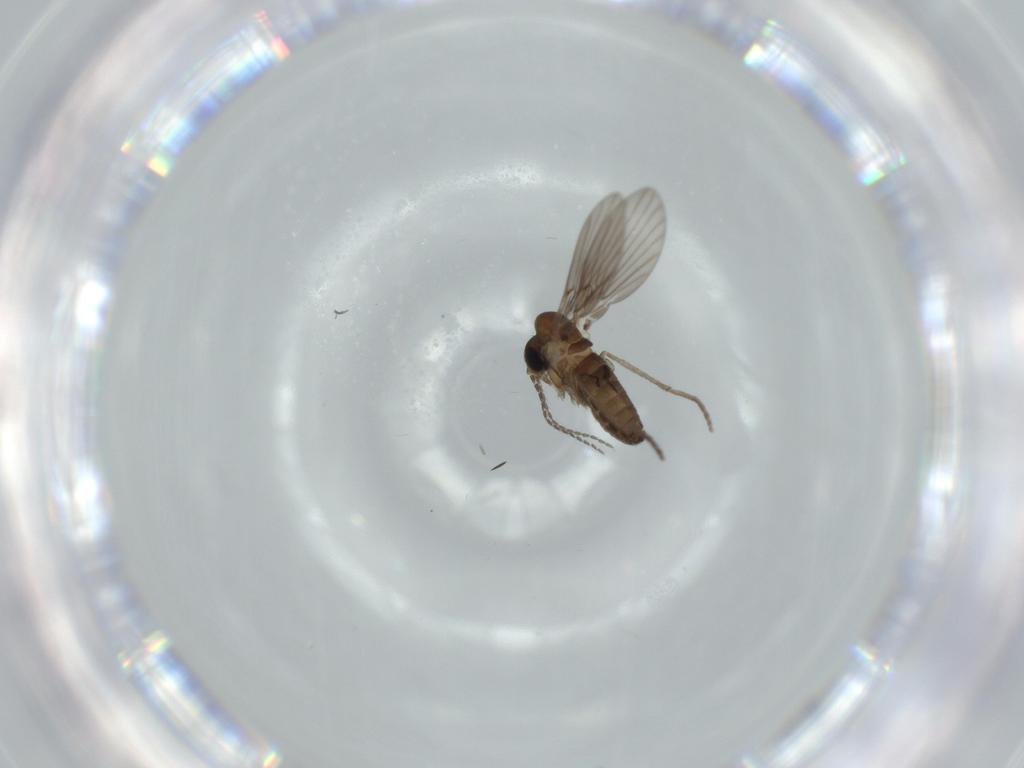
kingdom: Animalia
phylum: Arthropoda
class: Insecta
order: Diptera
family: Psychodidae
